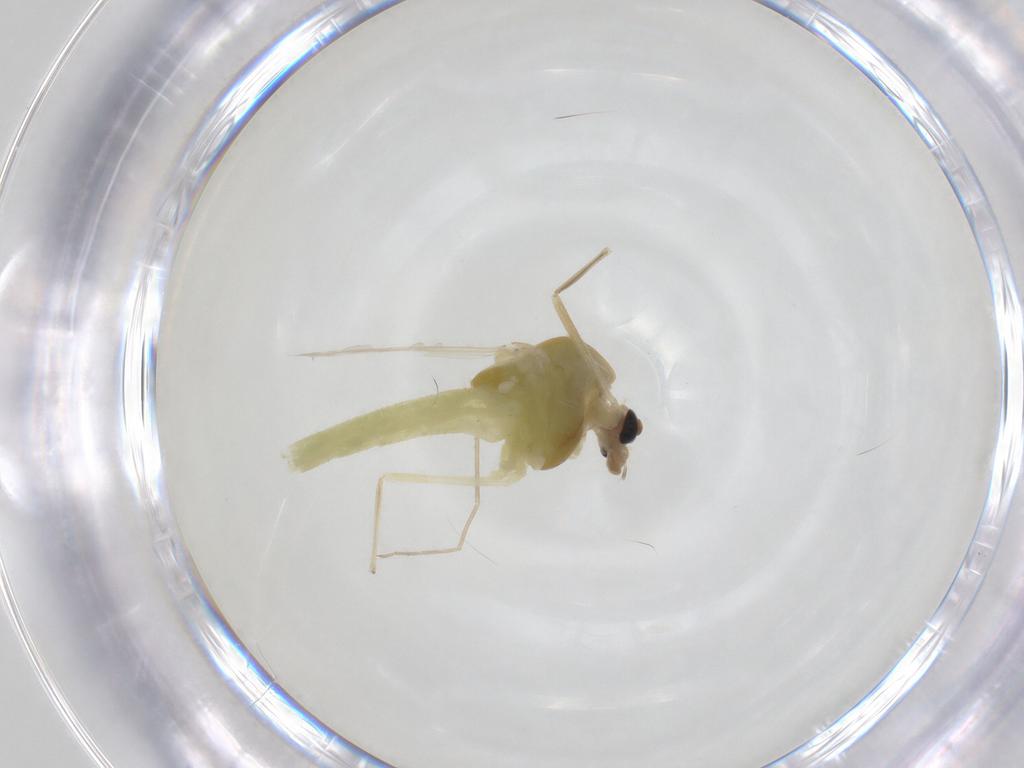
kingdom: Animalia
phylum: Arthropoda
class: Insecta
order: Diptera
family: Chironomidae
